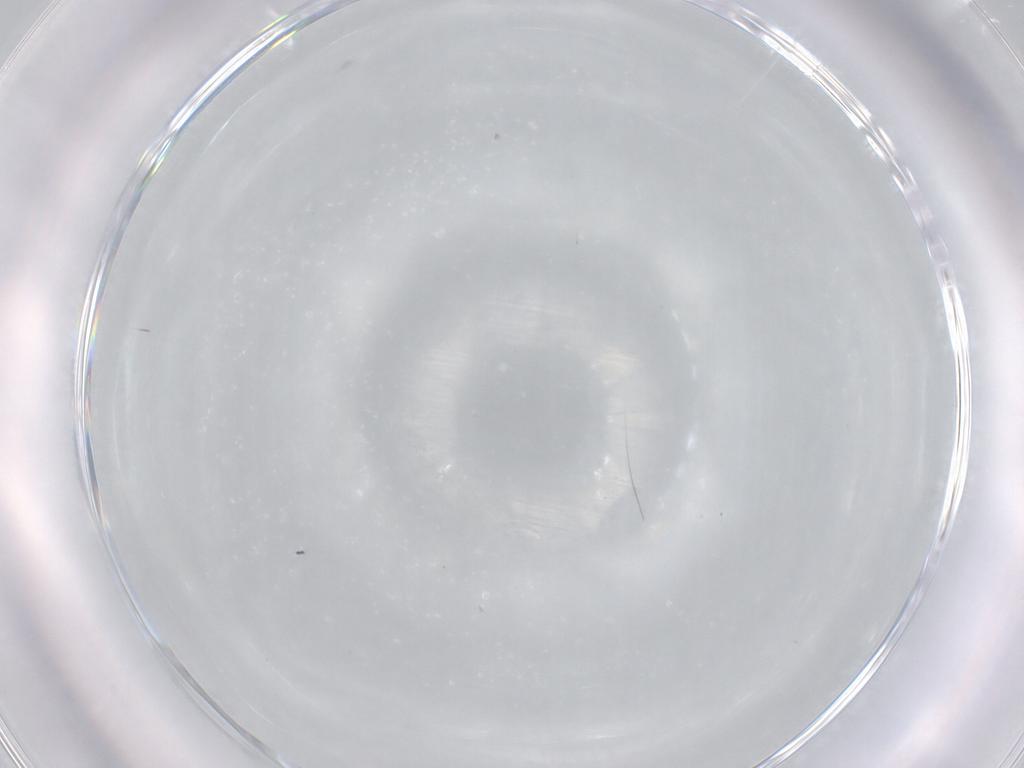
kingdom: Animalia
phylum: Arthropoda
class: Insecta
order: Hymenoptera
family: Scelionidae
